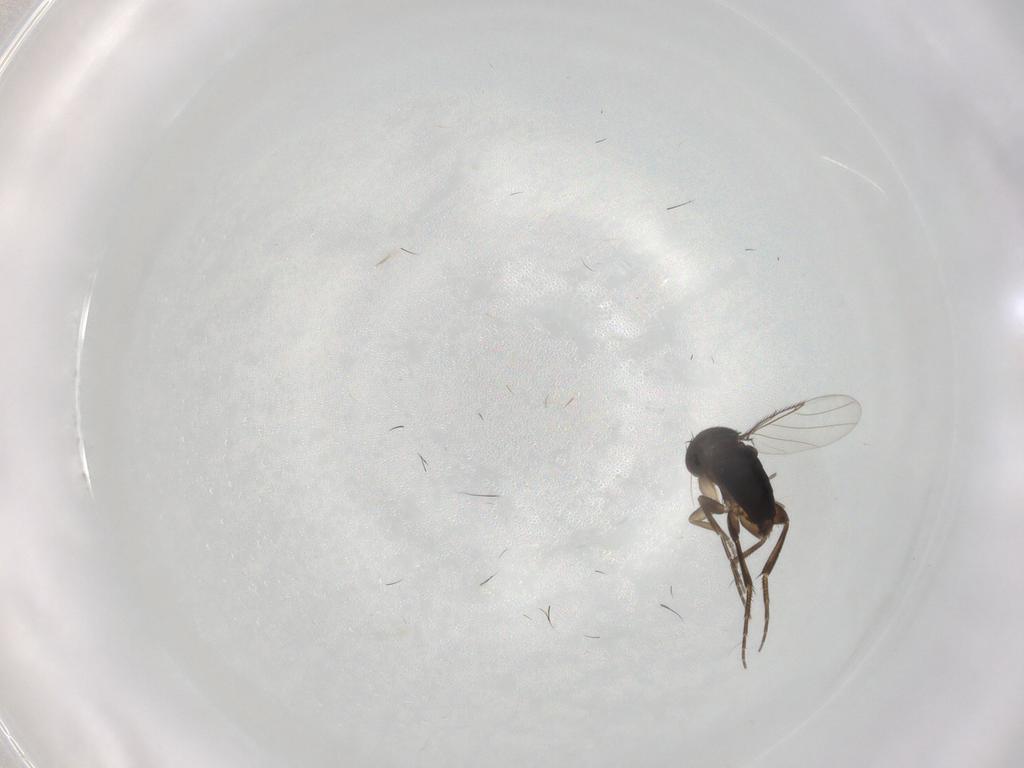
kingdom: Animalia
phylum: Arthropoda
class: Insecta
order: Diptera
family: Phoridae
